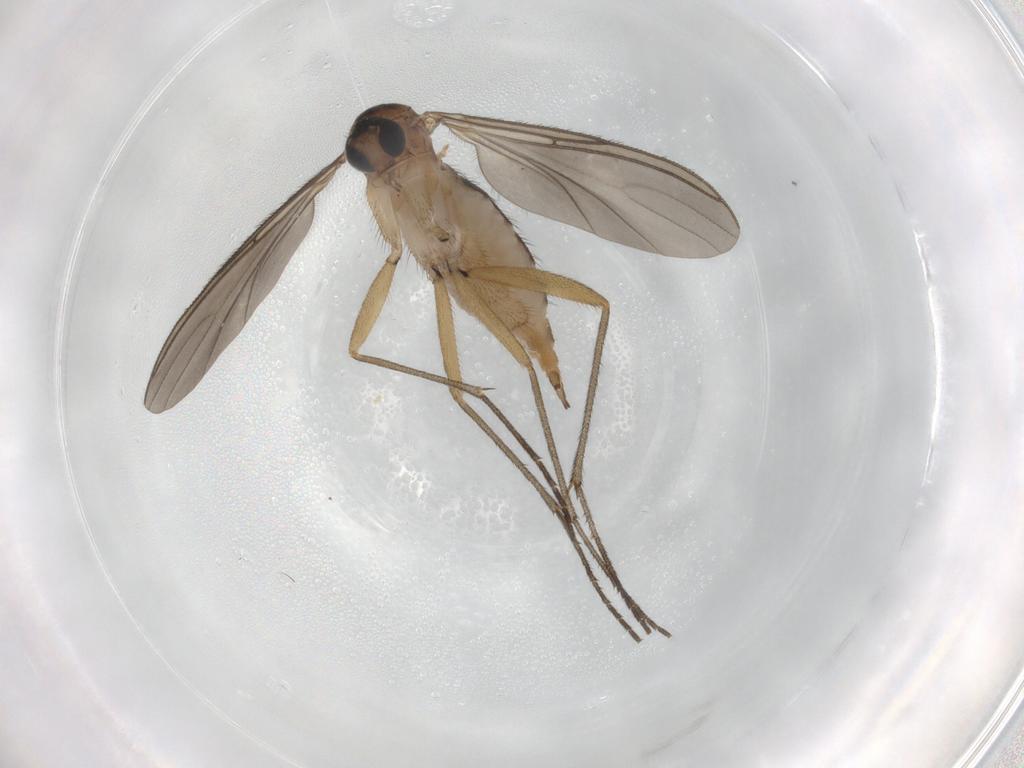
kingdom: Animalia
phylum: Arthropoda
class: Insecta
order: Diptera
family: Sciaridae
